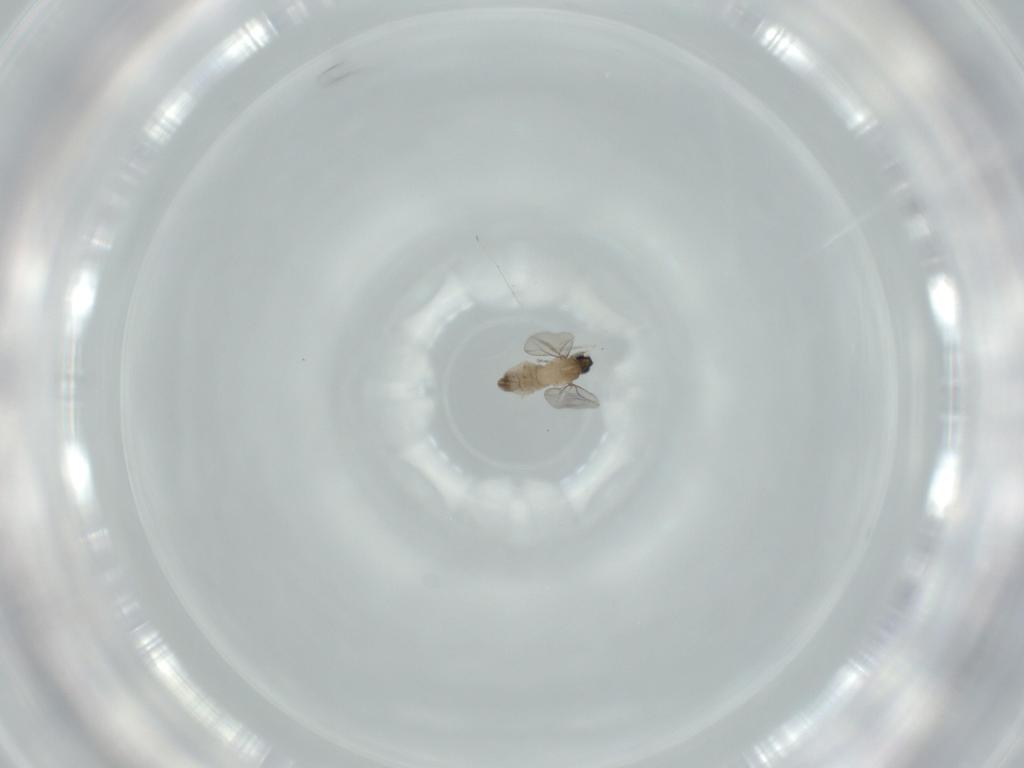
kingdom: Animalia
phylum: Arthropoda
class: Insecta
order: Diptera
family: Cecidomyiidae
